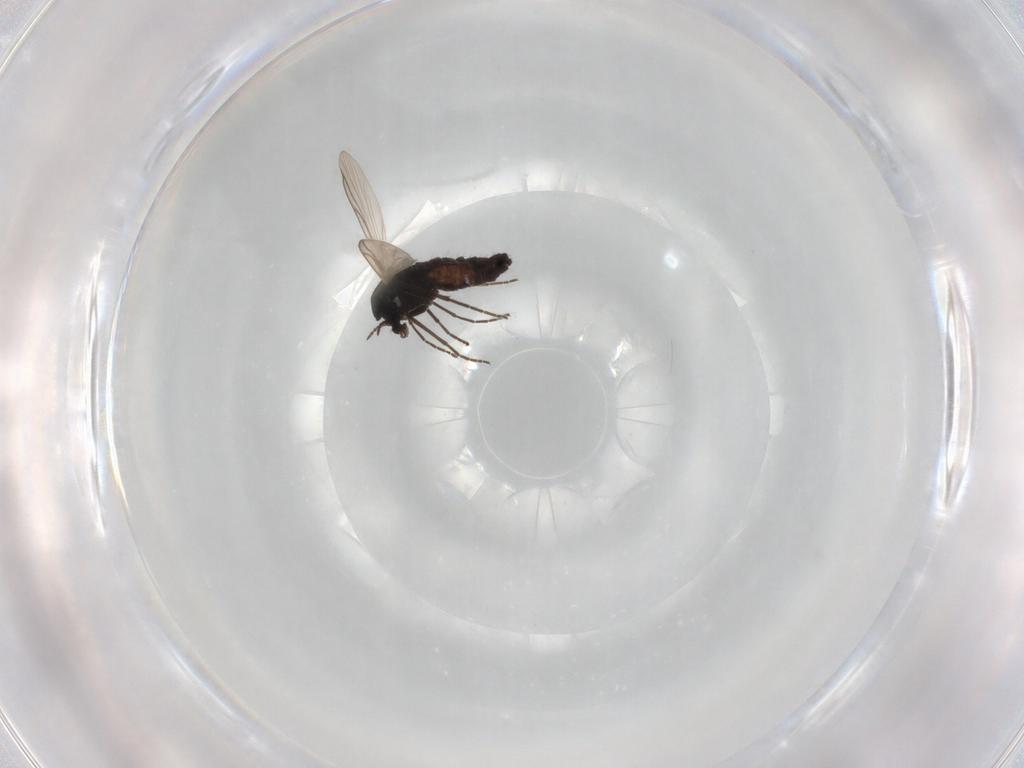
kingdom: Animalia
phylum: Arthropoda
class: Insecta
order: Diptera
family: Chironomidae
